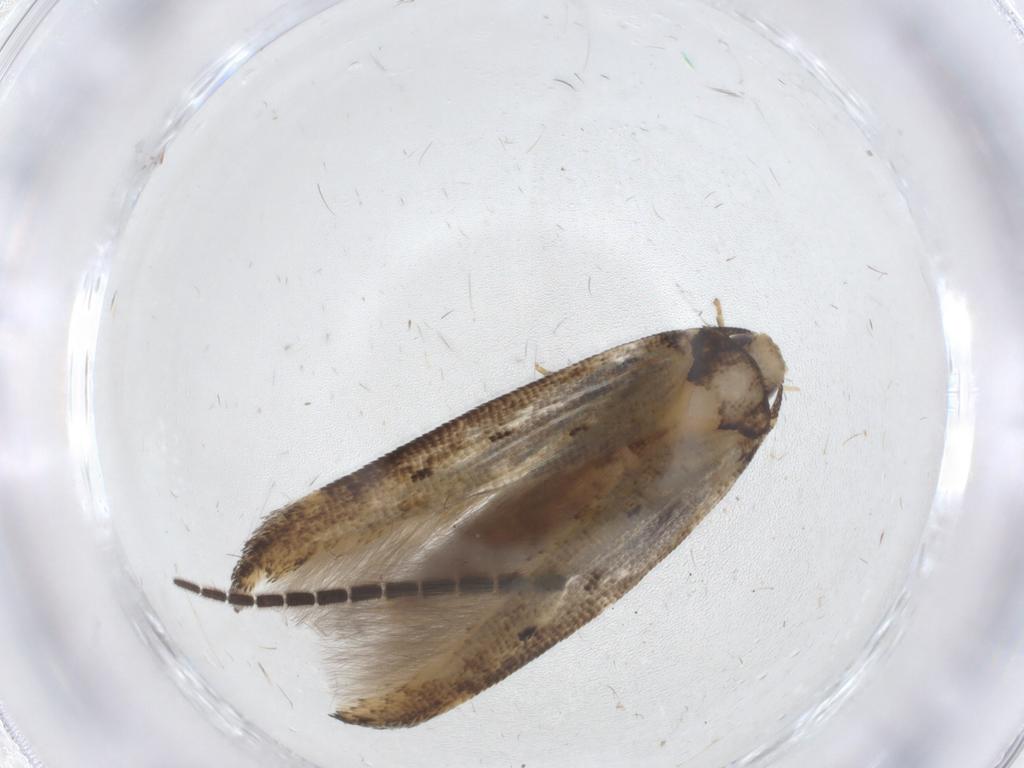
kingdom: Animalia
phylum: Arthropoda
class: Insecta
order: Lepidoptera
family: Cosmopterigidae
